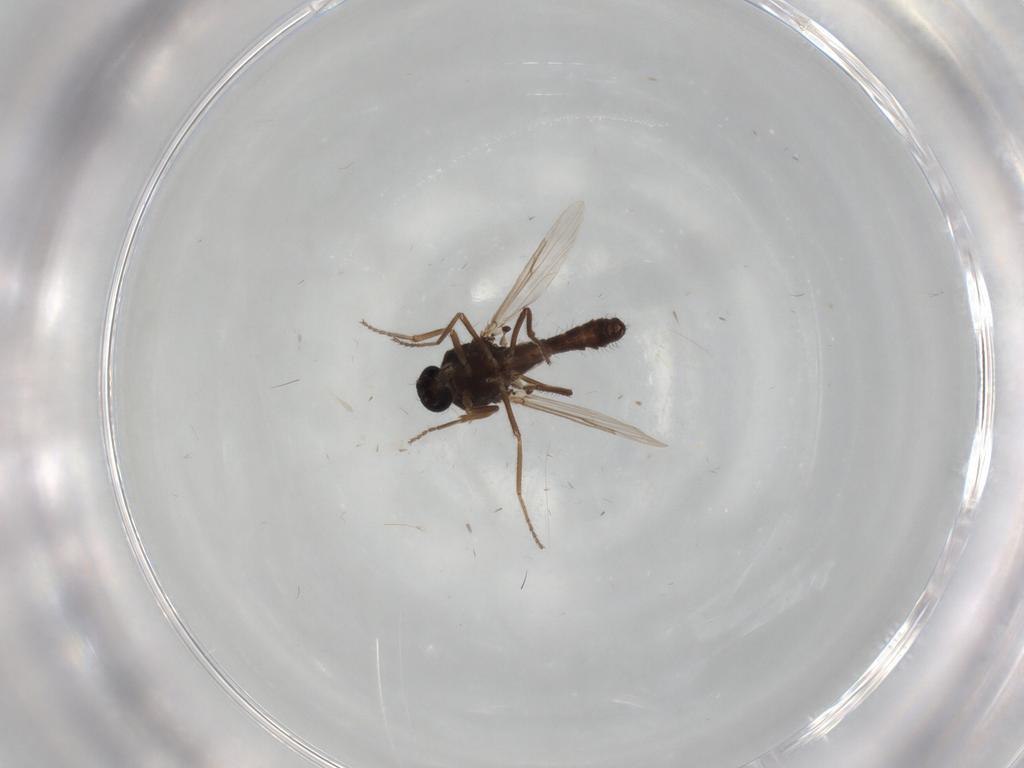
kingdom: Animalia
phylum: Arthropoda
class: Insecta
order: Diptera
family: Ceratopogonidae
